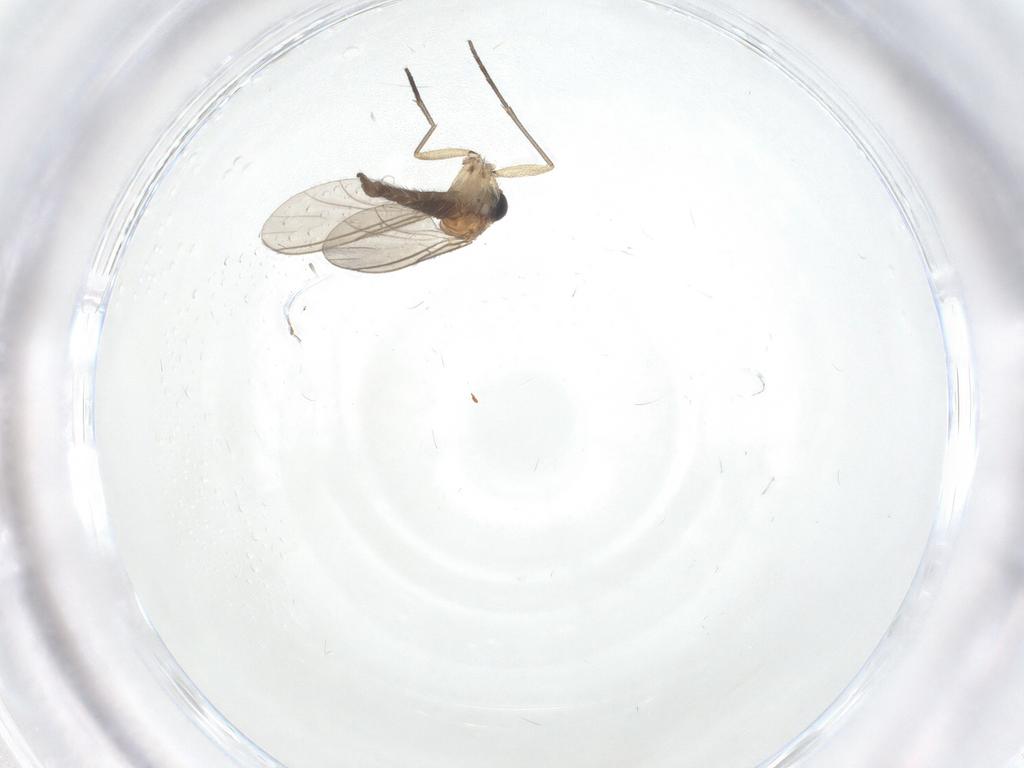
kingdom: Animalia
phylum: Arthropoda
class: Insecta
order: Diptera
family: Sciaridae
